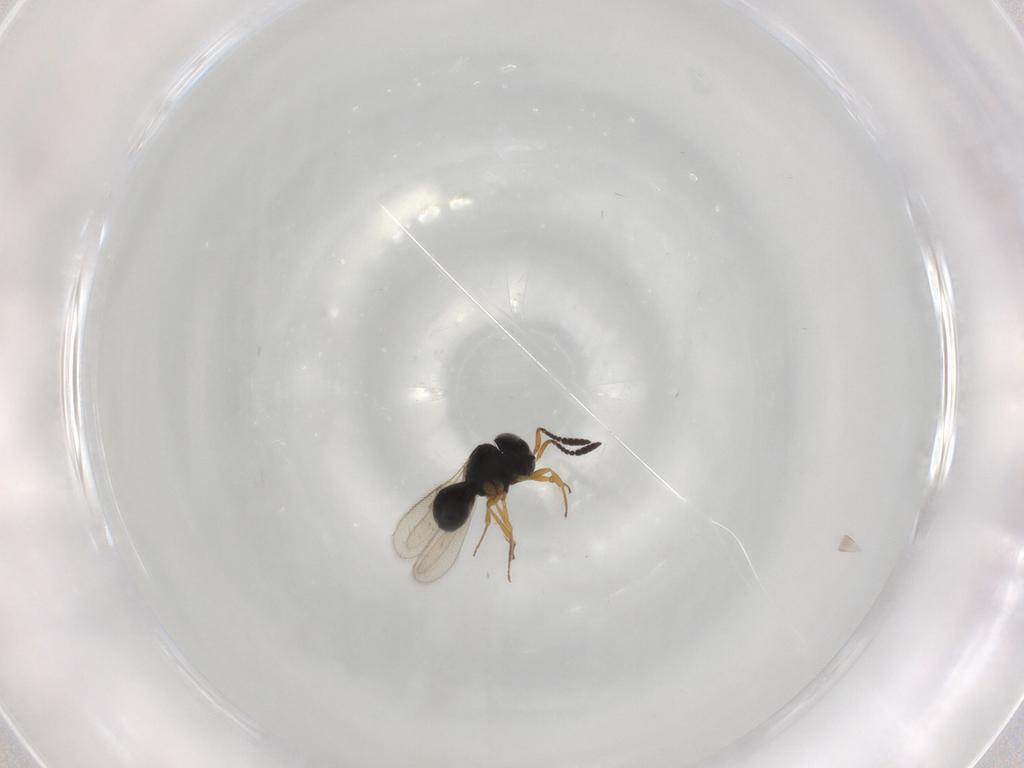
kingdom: Animalia
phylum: Arthropoda
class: Insecta
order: Hymenoptera
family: Scelionidae
